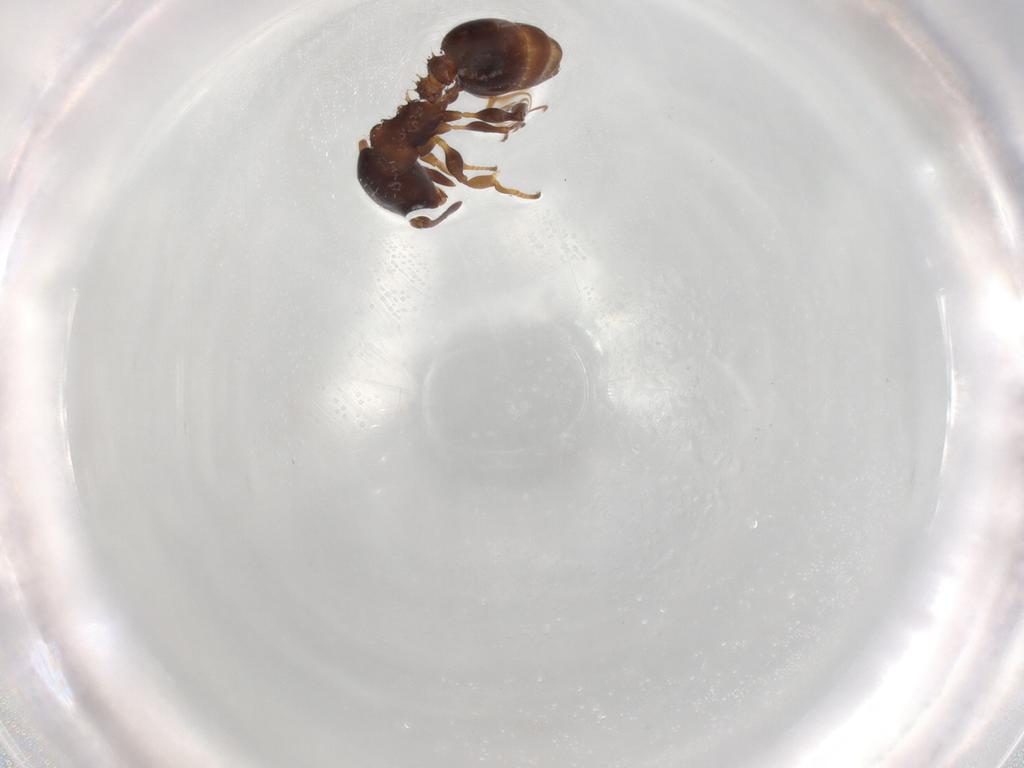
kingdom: Animalia
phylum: Arthropoda
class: Insecta
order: Hymenoptera
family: Formicidae
